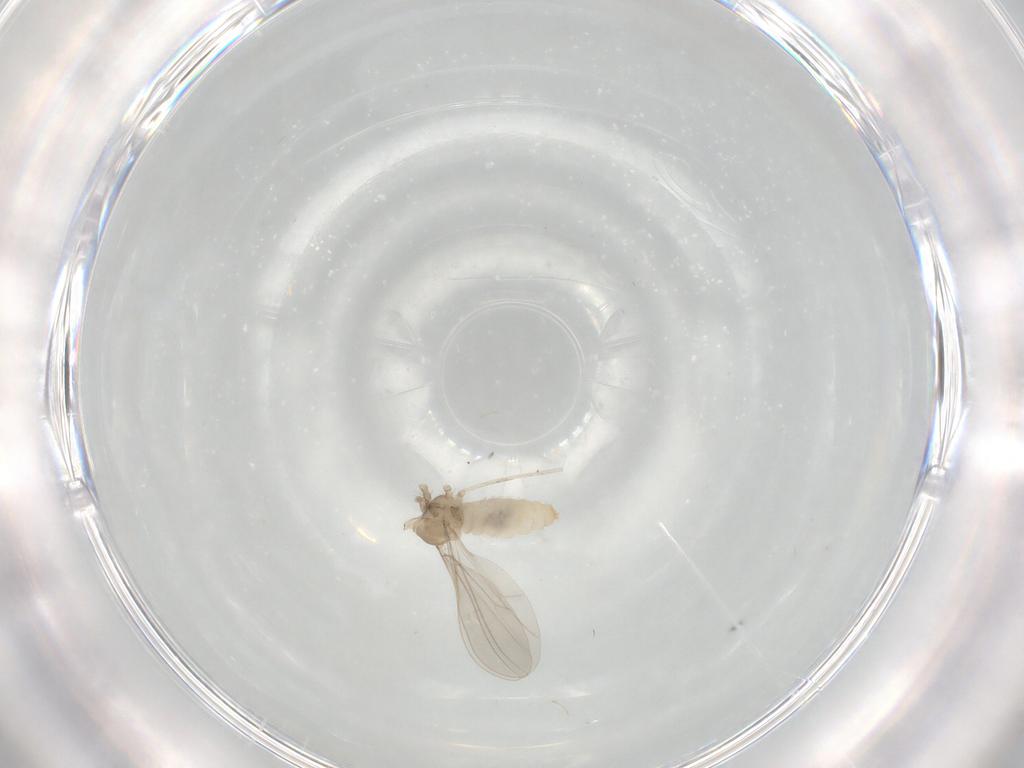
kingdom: Animalia
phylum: Arthropoda
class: Insecta
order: Diptera
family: Cecidomyiidae
